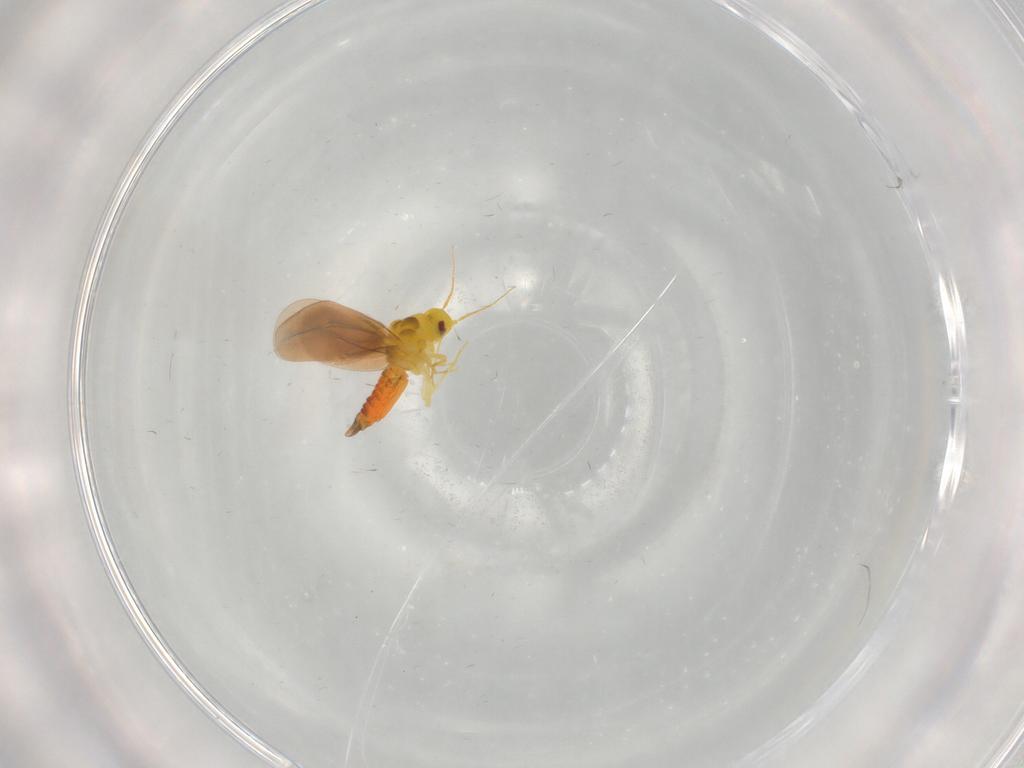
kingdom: Animalia
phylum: Arthropoda
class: Insecta
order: Hemiptera
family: Aleyrodidae
